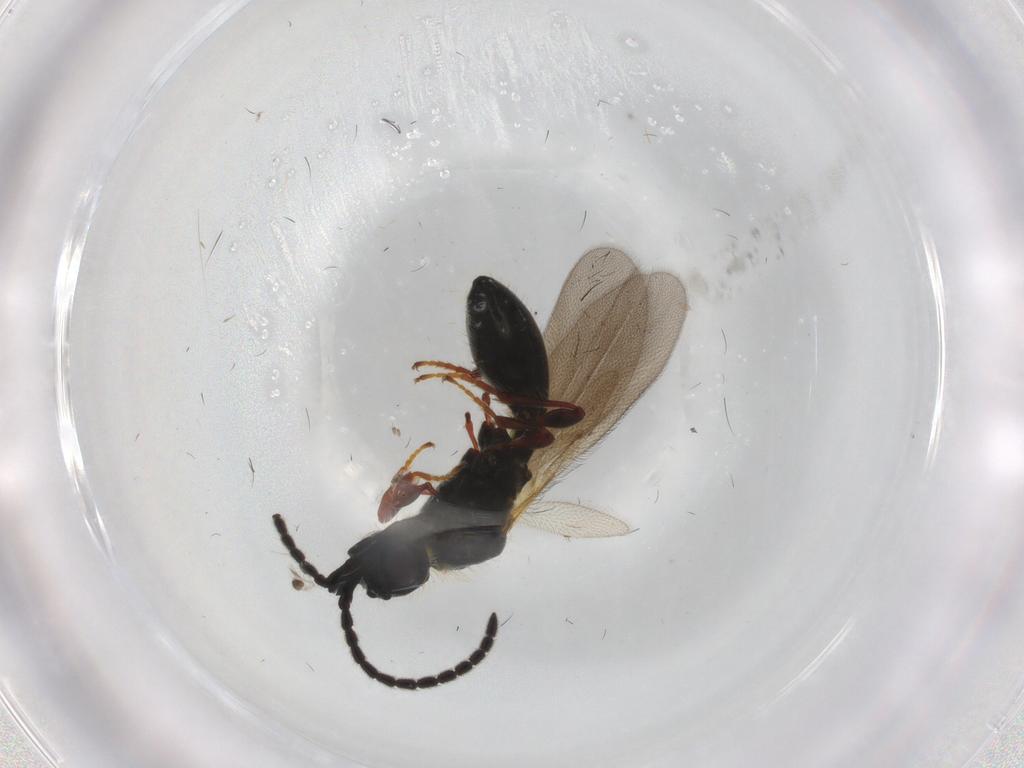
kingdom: Animalia
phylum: Arthropoda
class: Insecta
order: Hymenoptera
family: Diapriidae
